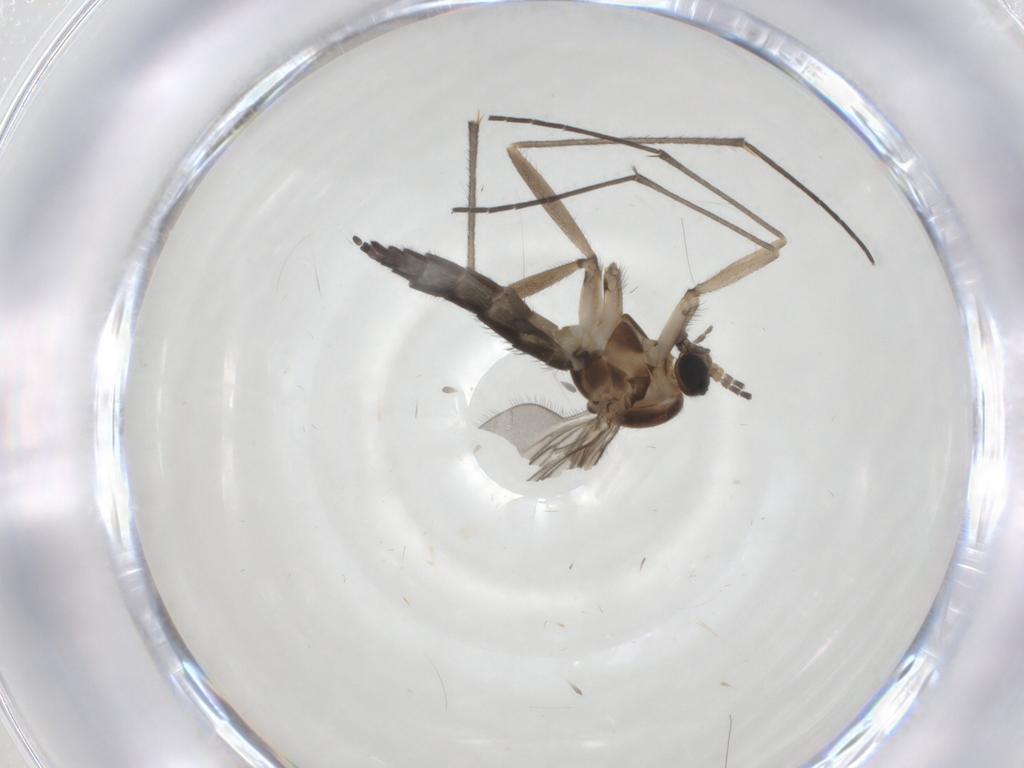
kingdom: Animalia
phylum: Arthropoda
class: Insecta
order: Diptera
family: Sciaridae
